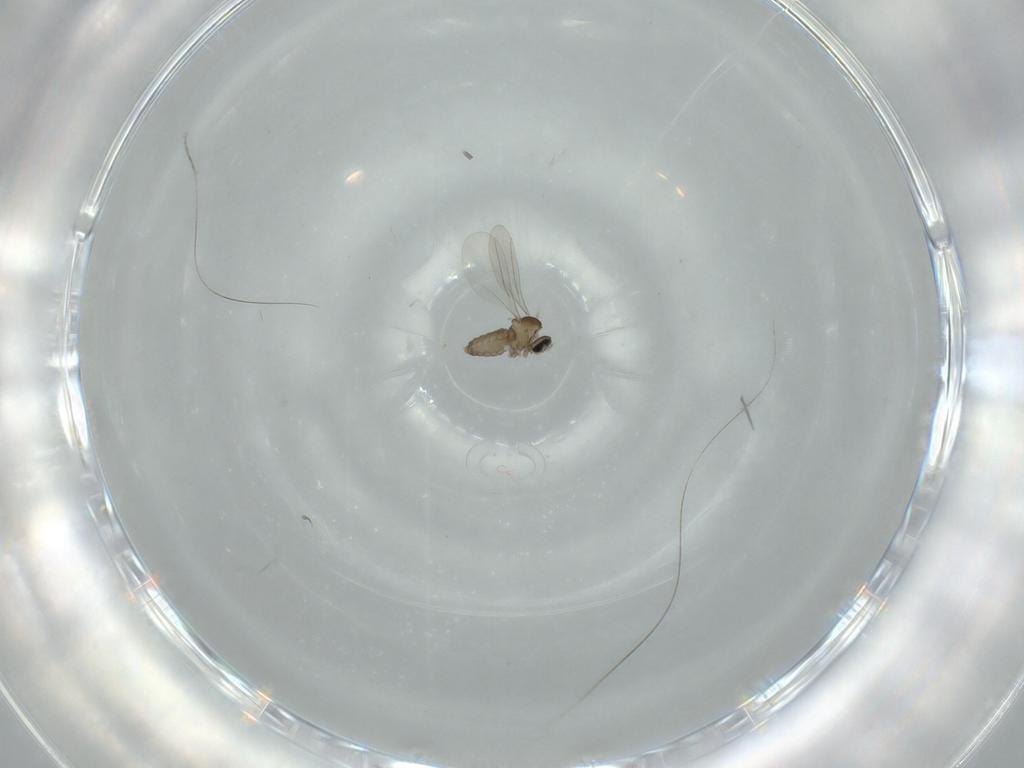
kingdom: Animalia
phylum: Arthropoda
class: Insecta
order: Diptera
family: Cecidomyiidae
